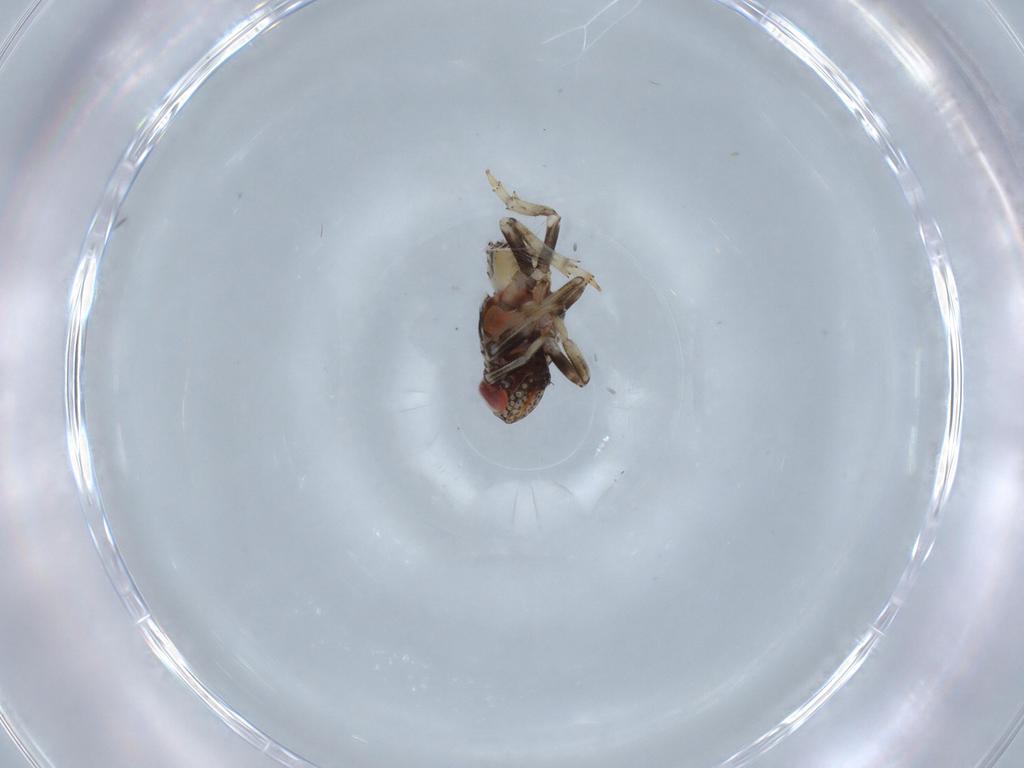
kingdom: Animalia
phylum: Arthropoda
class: Insecta
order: Hemiptera
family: Issidae
